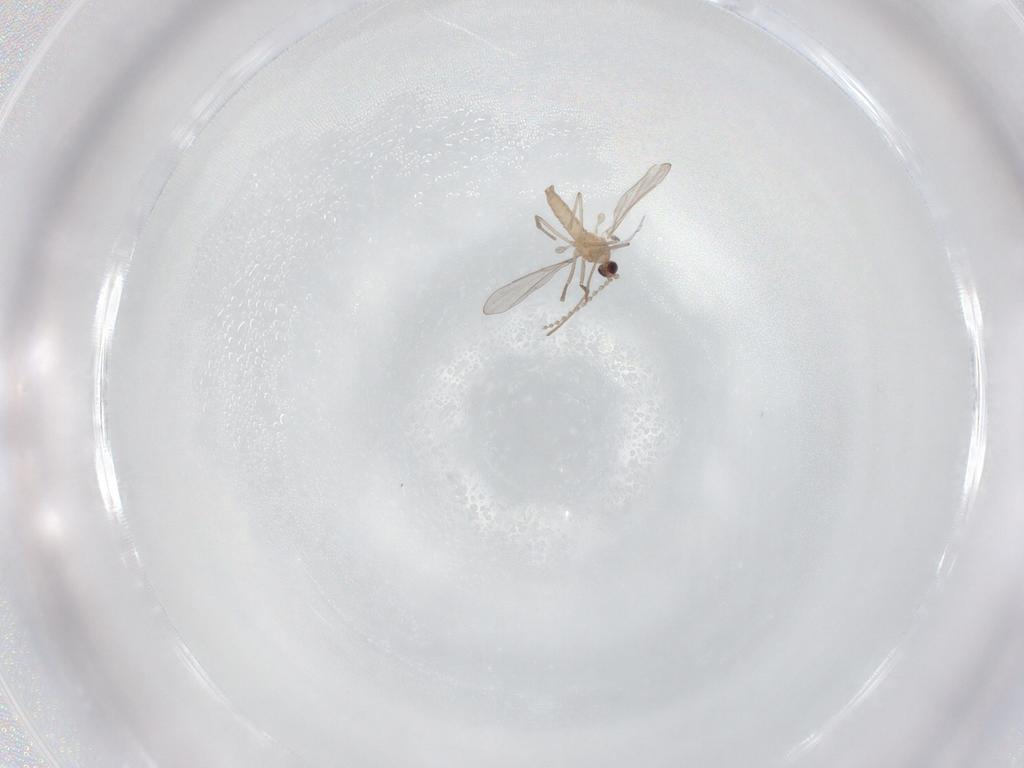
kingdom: Animalia
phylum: Arthropoda
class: Insecta
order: Diptera
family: Cecidomyiidae
